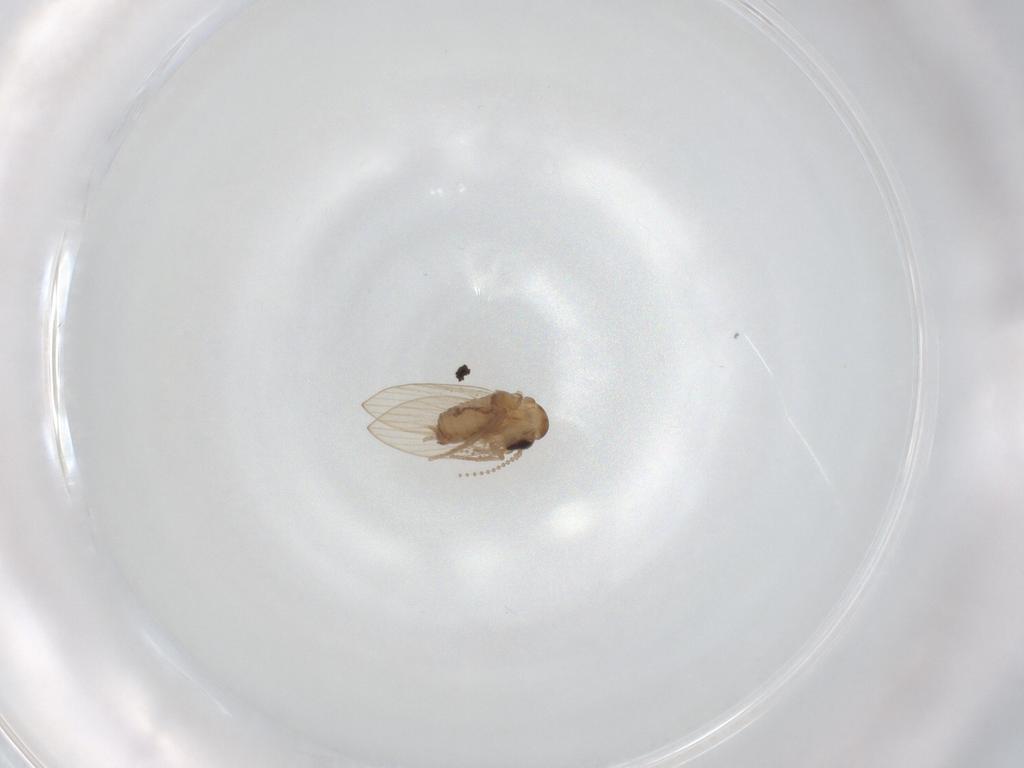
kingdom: Animalia
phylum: Arthropoda
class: Insecta
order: Diptera
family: Psychodidae
